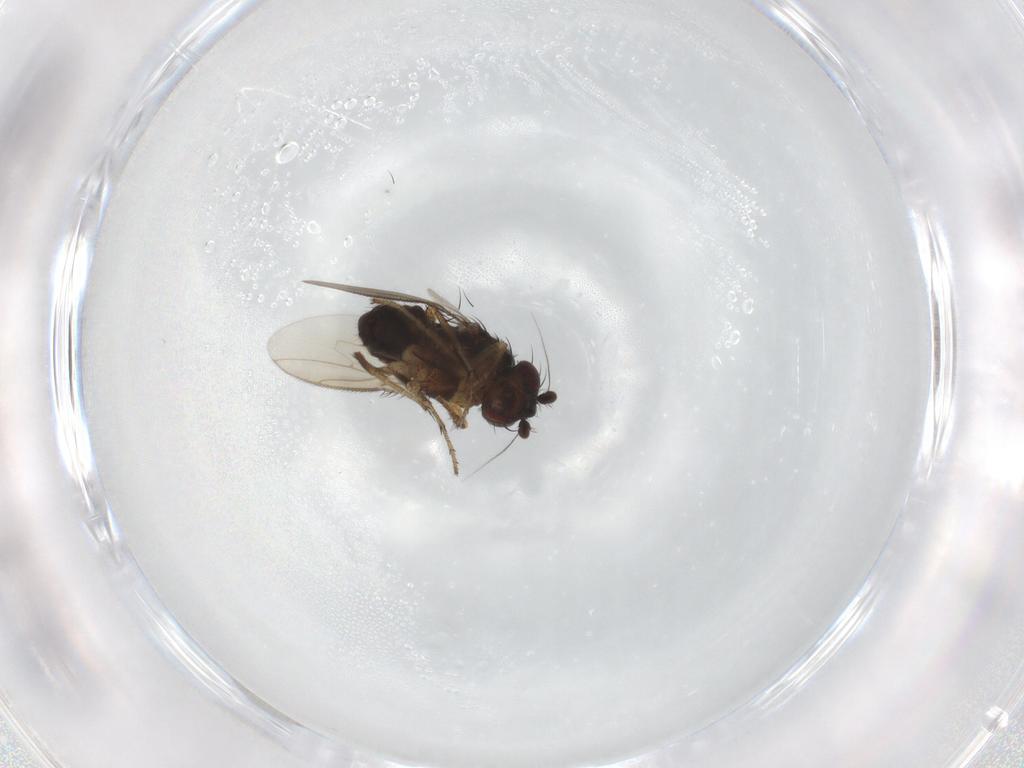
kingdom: Animalia
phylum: Arthropoda
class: Insecta
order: Diptera
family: Sphaeroceridae
